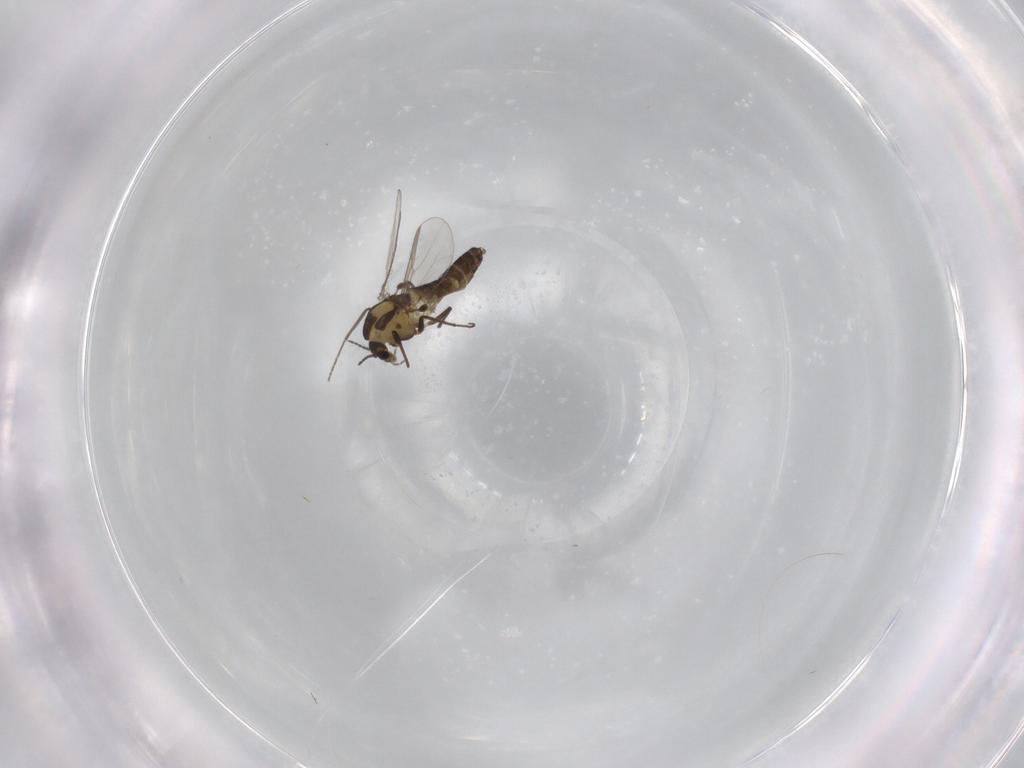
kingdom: Animalia
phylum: Arthropoda
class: Insecta
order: Diptera
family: Chironomidae
